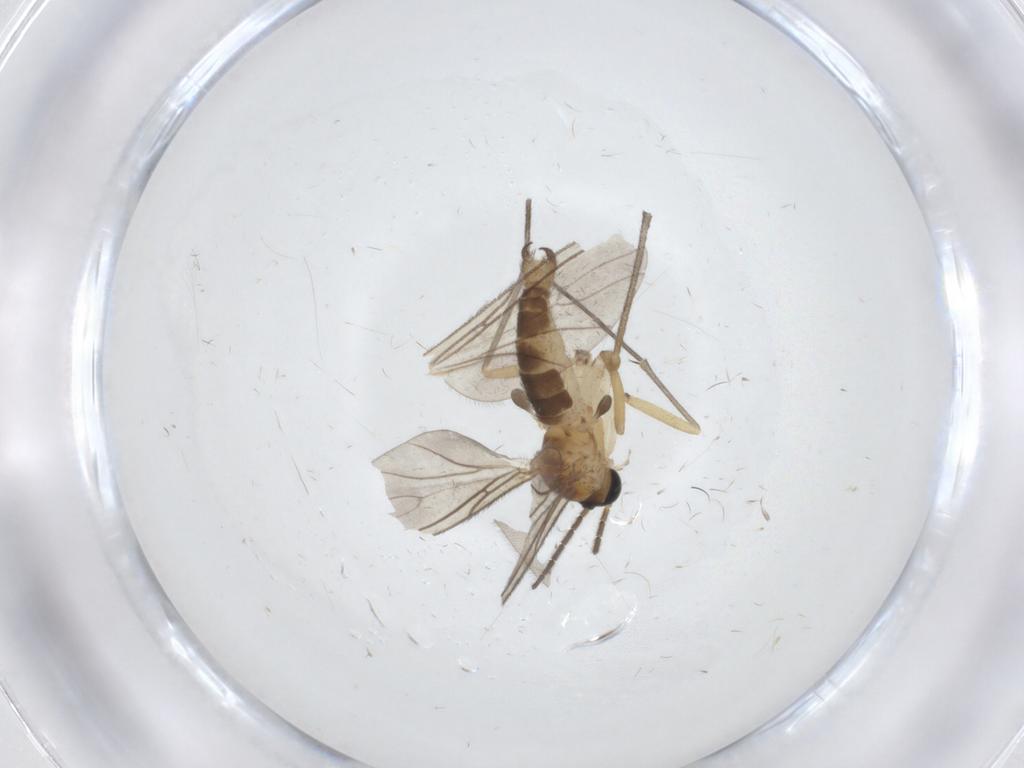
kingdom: Animalia
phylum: Arthropoda
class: Insecta
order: Diptera
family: Sciaridae
